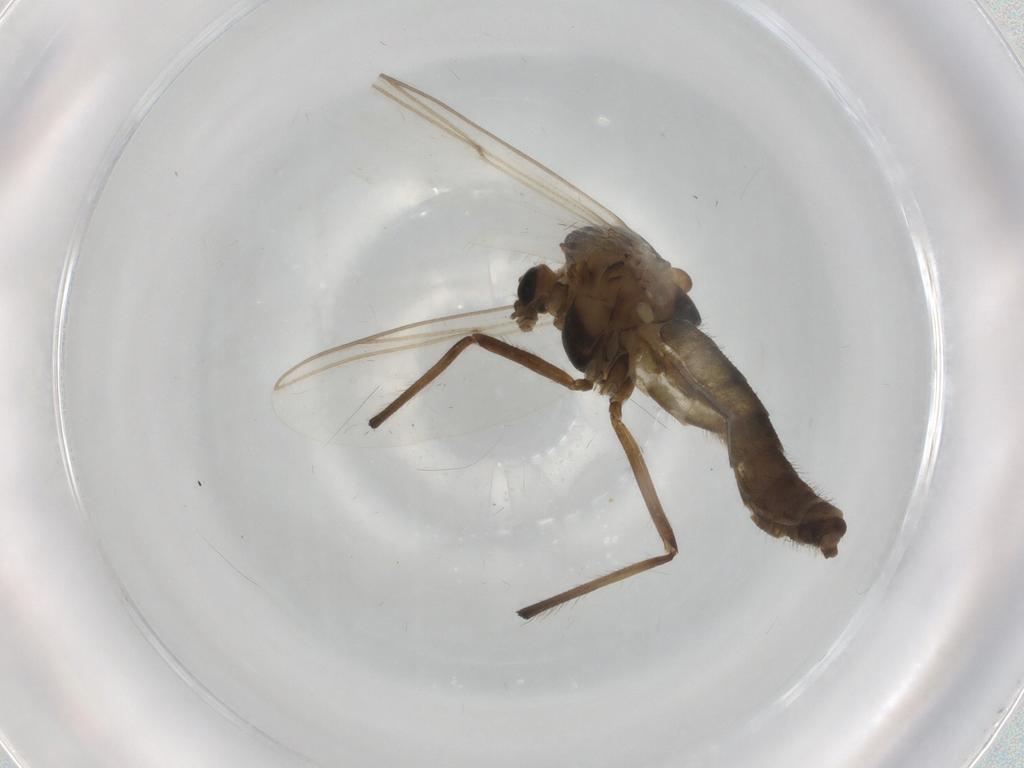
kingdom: Animalia
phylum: Arthropoda
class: Insecta
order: Diptera
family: Chironomidae
